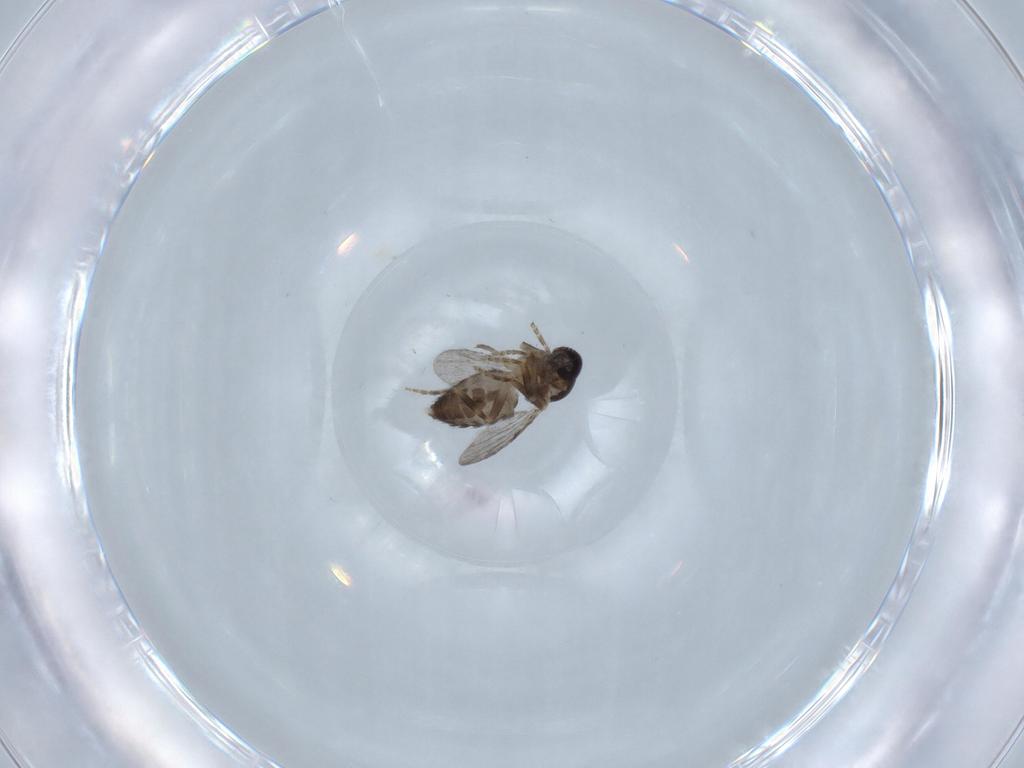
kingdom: Animalia
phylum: Arthropoda
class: Insecta
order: Diptera
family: Ceratopogonidae
